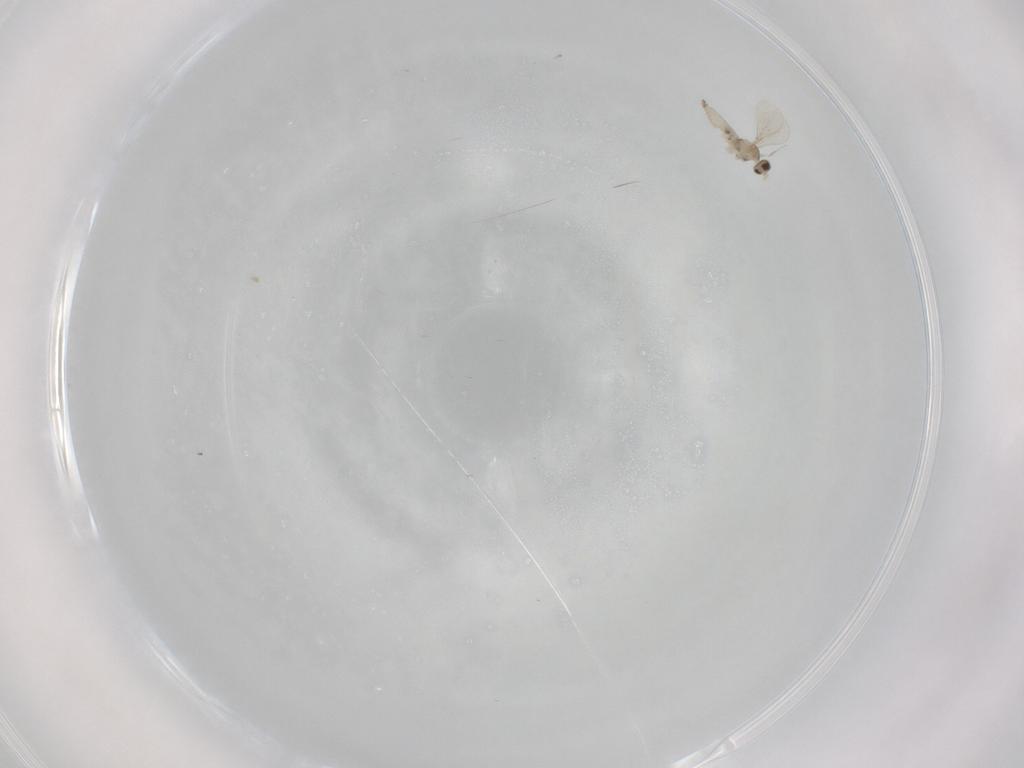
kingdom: Animalia
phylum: Arthropoda
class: Insecta
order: Diptera
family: Cecidomyiidae
